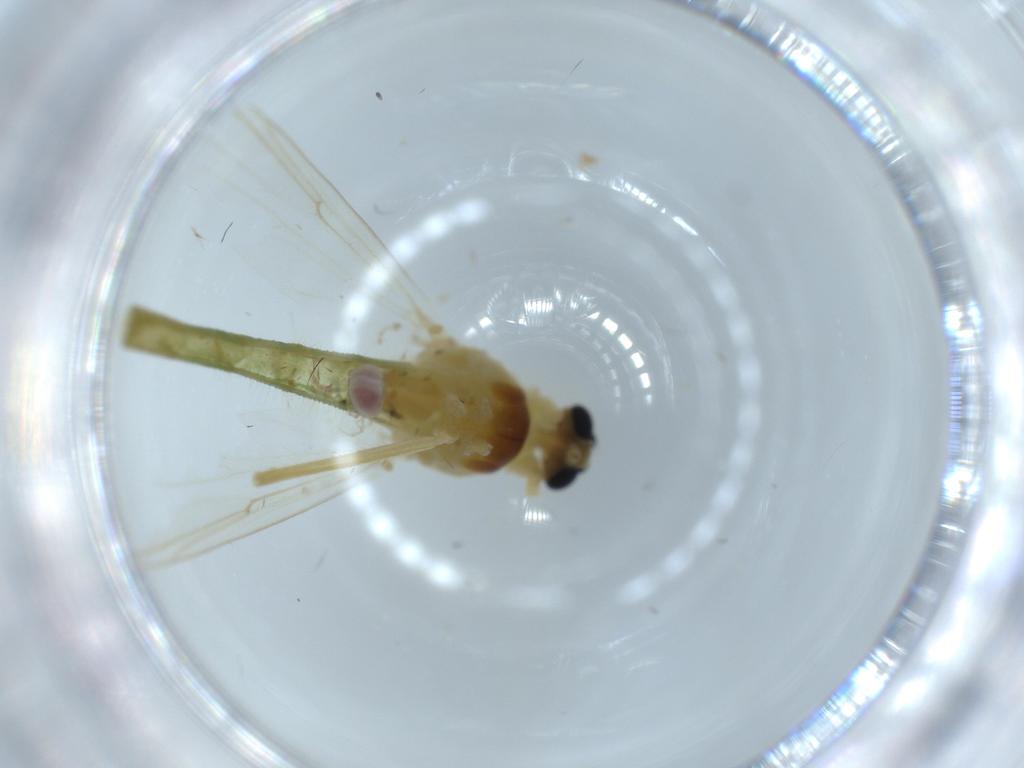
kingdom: Animalia
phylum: Arthropoda
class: Insecta
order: Diptera
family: Chironomidae
